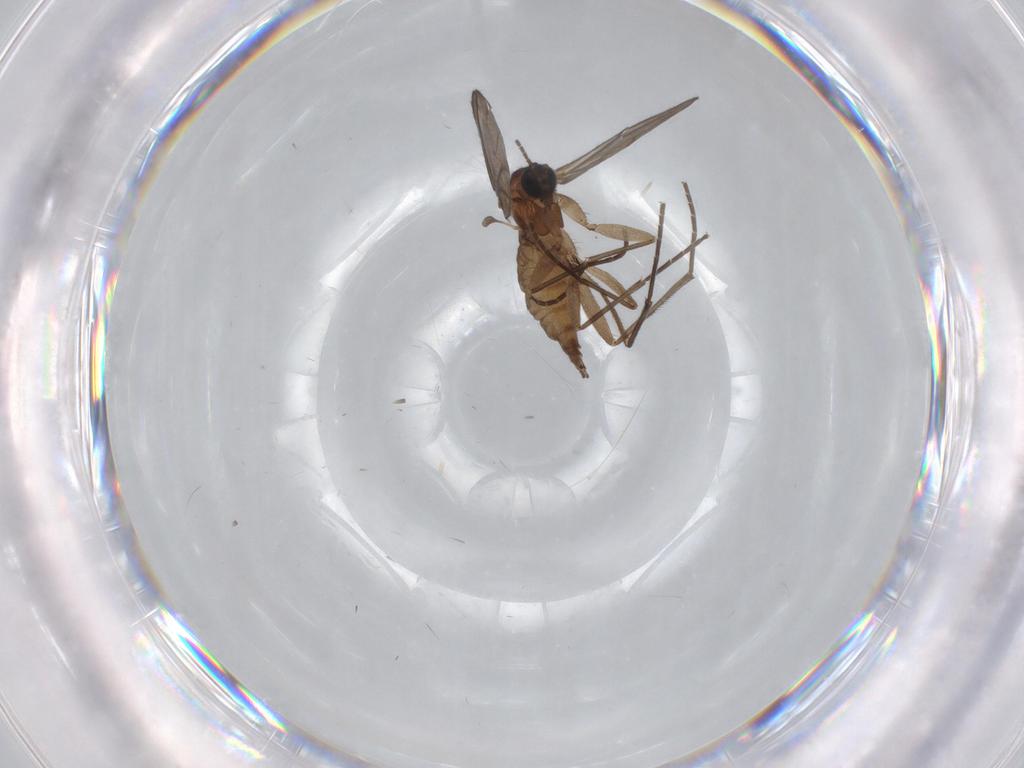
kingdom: Animalia
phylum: Arthropoda
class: Insecta
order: Diptera
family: Sciaridae
